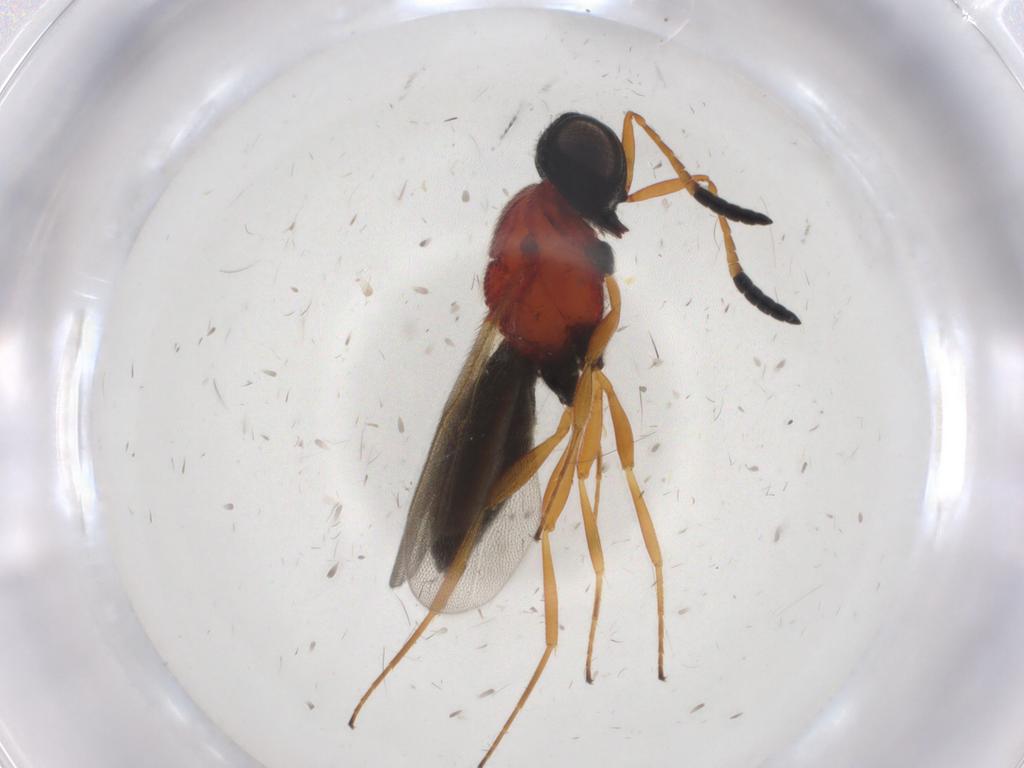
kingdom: Animalia
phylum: Arthropoda
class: Insecta
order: Hymenoptera
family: Scelionidae
